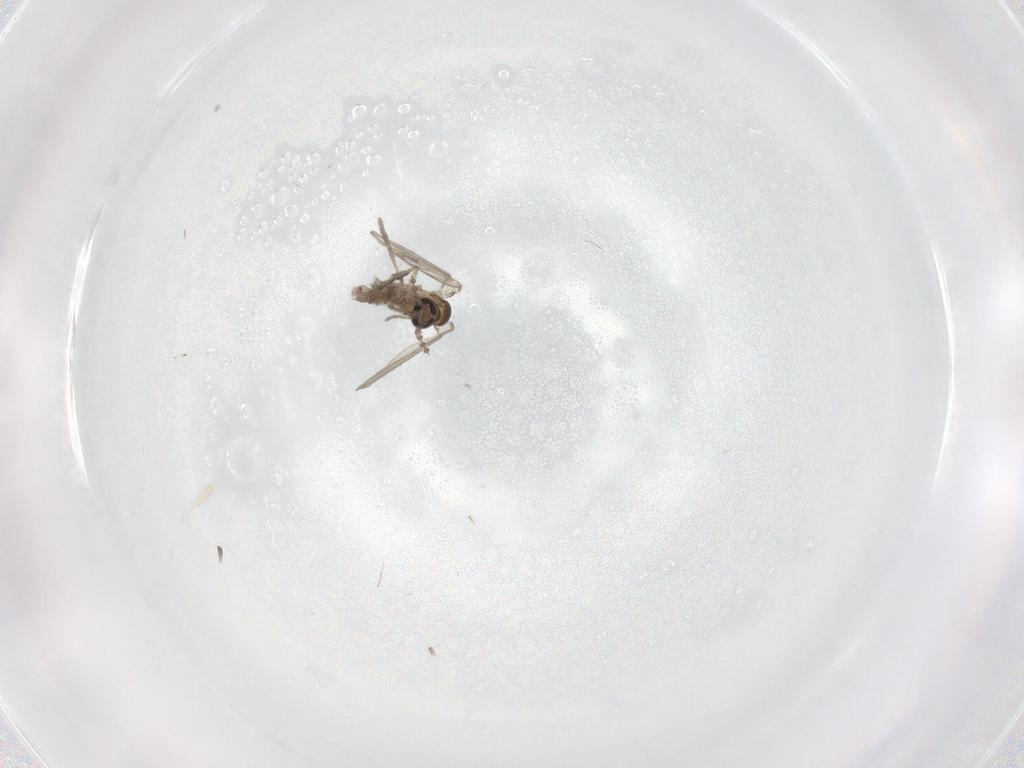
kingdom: Animalia
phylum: Arthropoda
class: Insecta
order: Diptera
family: Psychodidae
